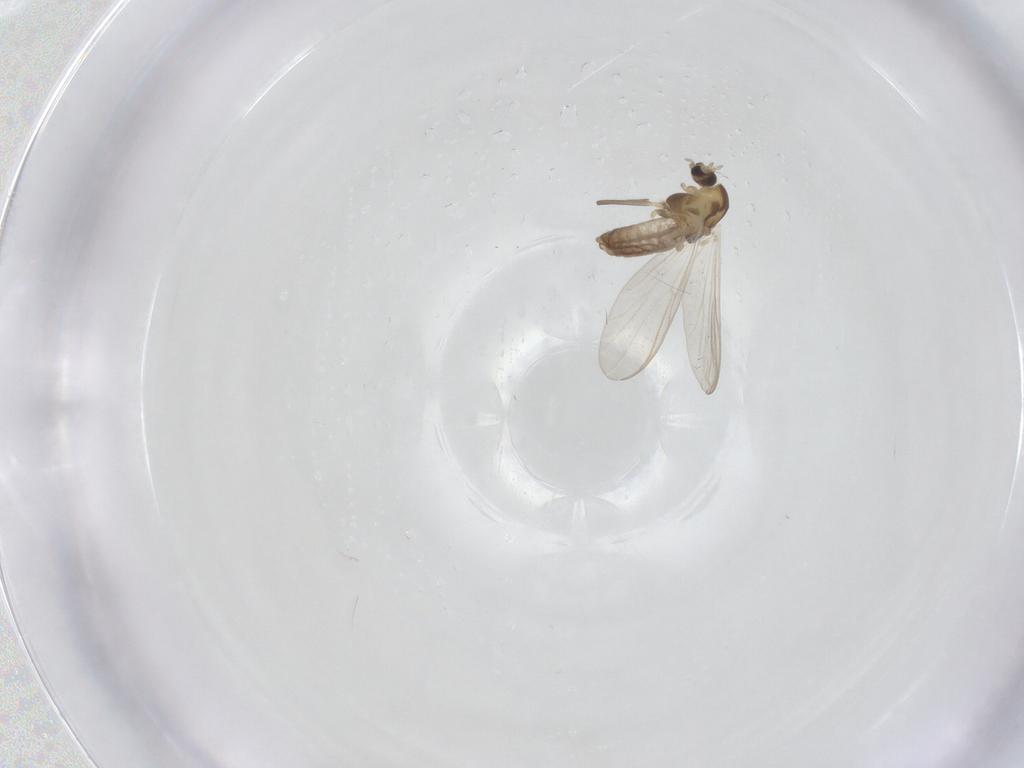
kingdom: Animalia
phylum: Arthropoda
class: Insecta
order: Diptera
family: Chironomidae
